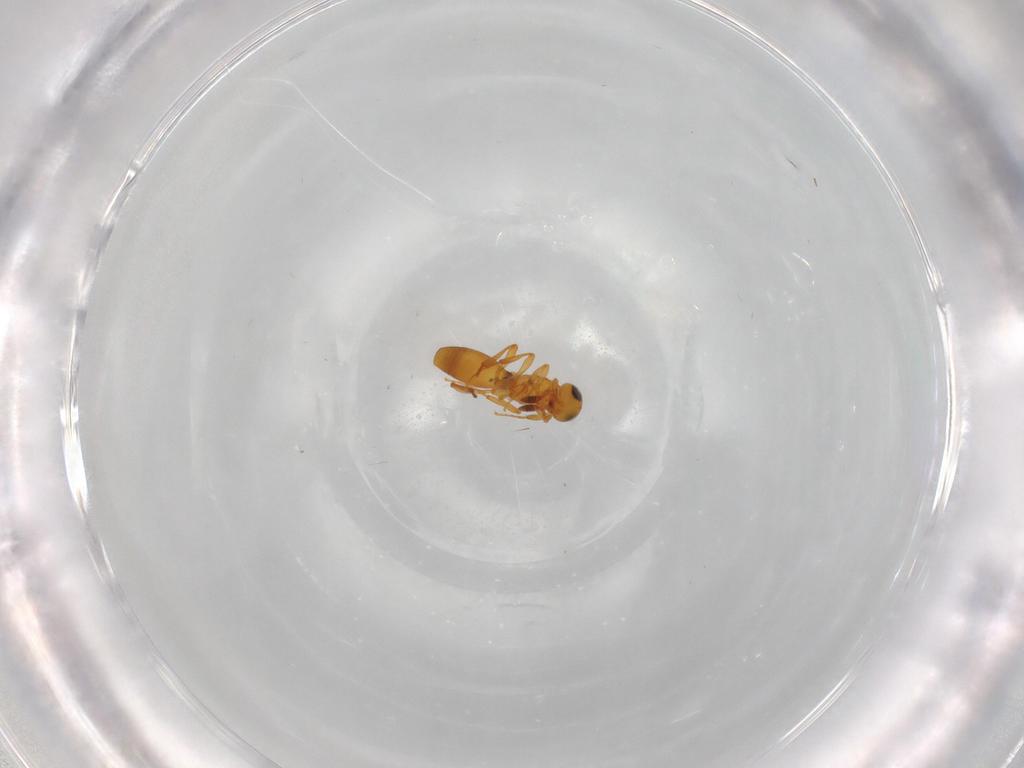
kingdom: Animalia
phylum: Arthropoda
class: Insecta
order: Hymenoptera
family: Platygastridae
